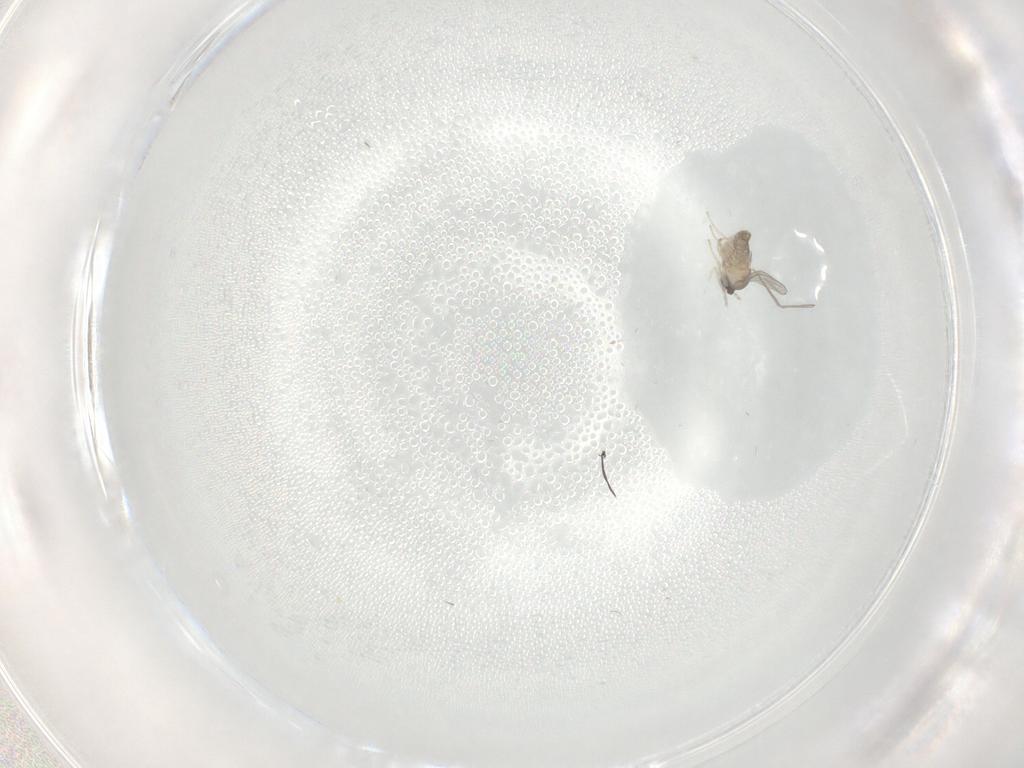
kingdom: Animalia
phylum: Arthropoda
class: Insecta
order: Diptera
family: Cecidomyiidae
